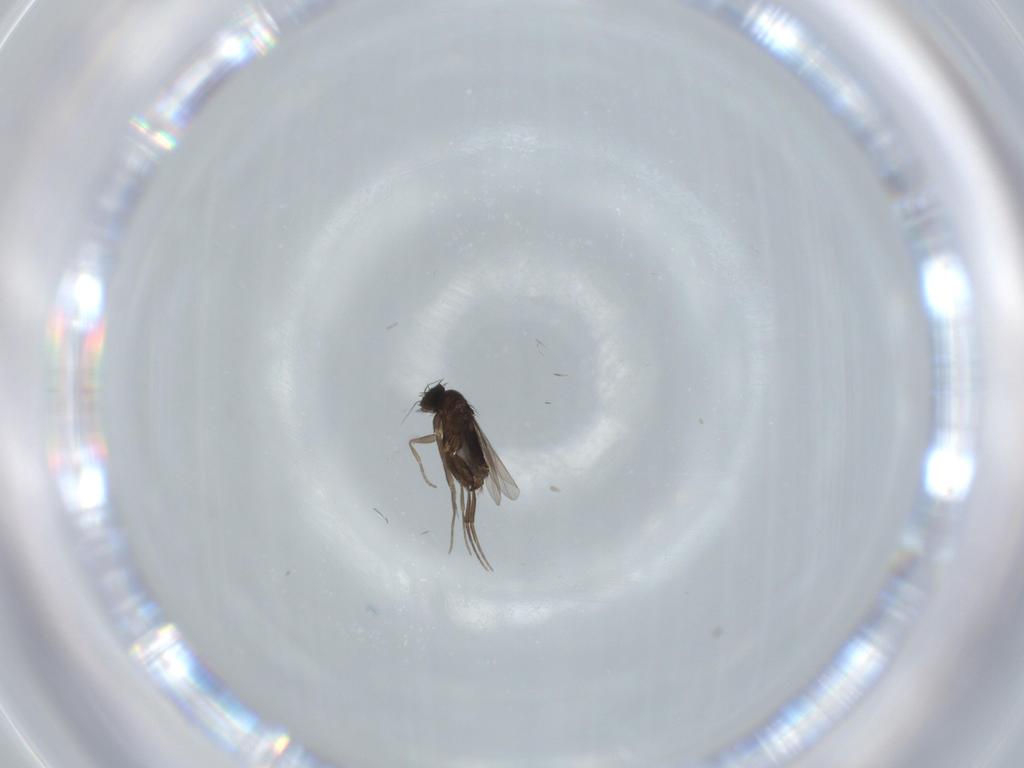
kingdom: Animalia
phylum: Arthropoda
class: Insecta
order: Diptera
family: Phoridae
